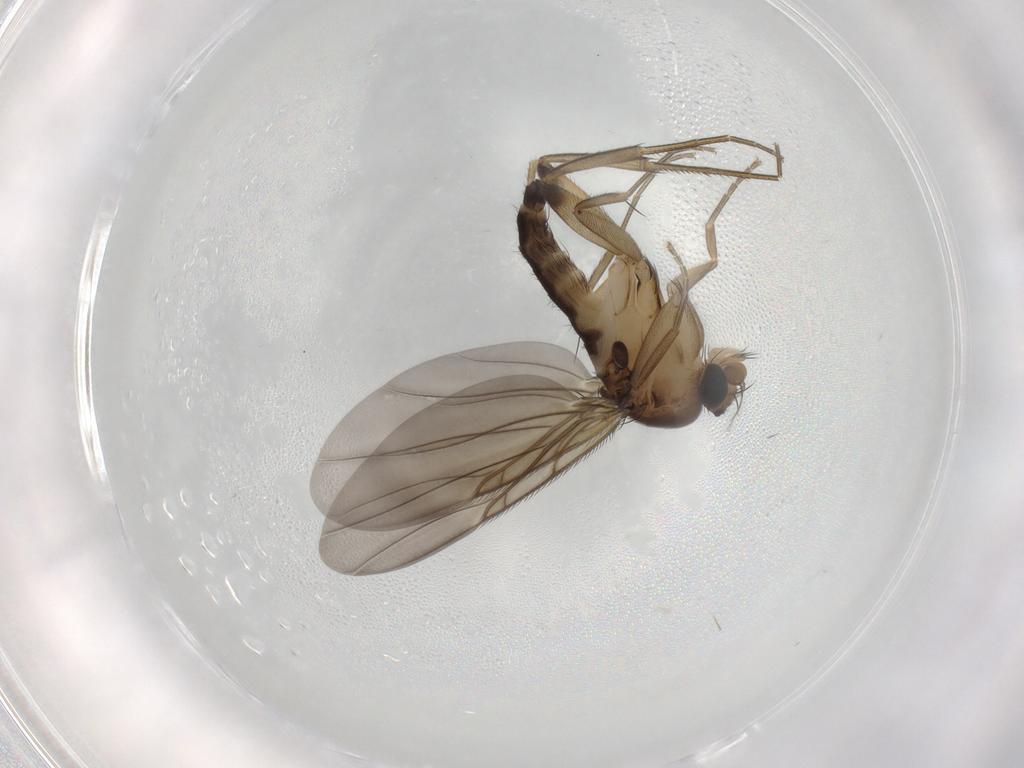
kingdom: Animalia
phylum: Arthropoda
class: Insecta
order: Diptera
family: Phoridae
